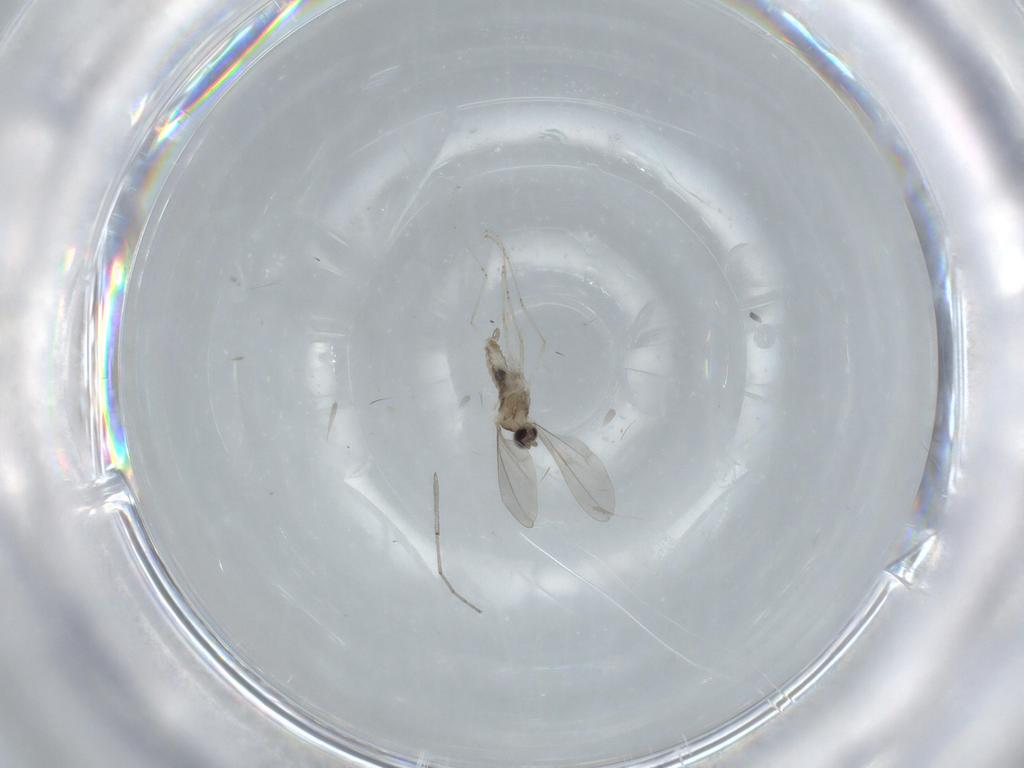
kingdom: Animalia
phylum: Arthropoda
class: Insecta
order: Diptera
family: Chironomidae
